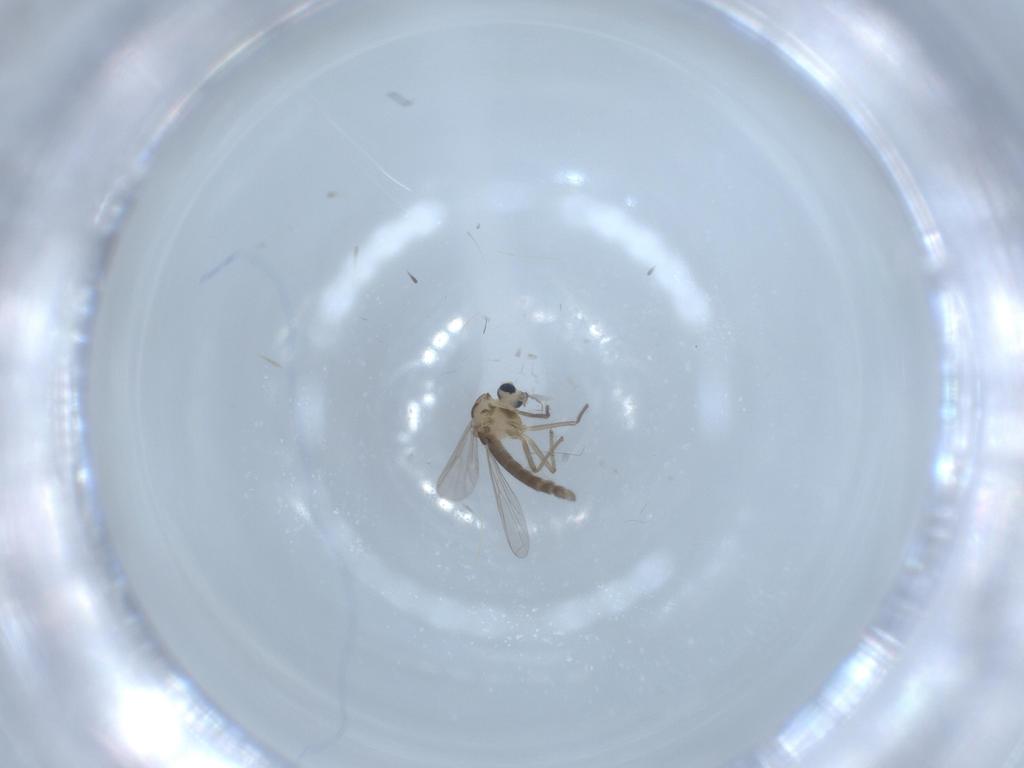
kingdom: Animalia
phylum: Arthropoda
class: Insecta
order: Diptera
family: Chironomidae
